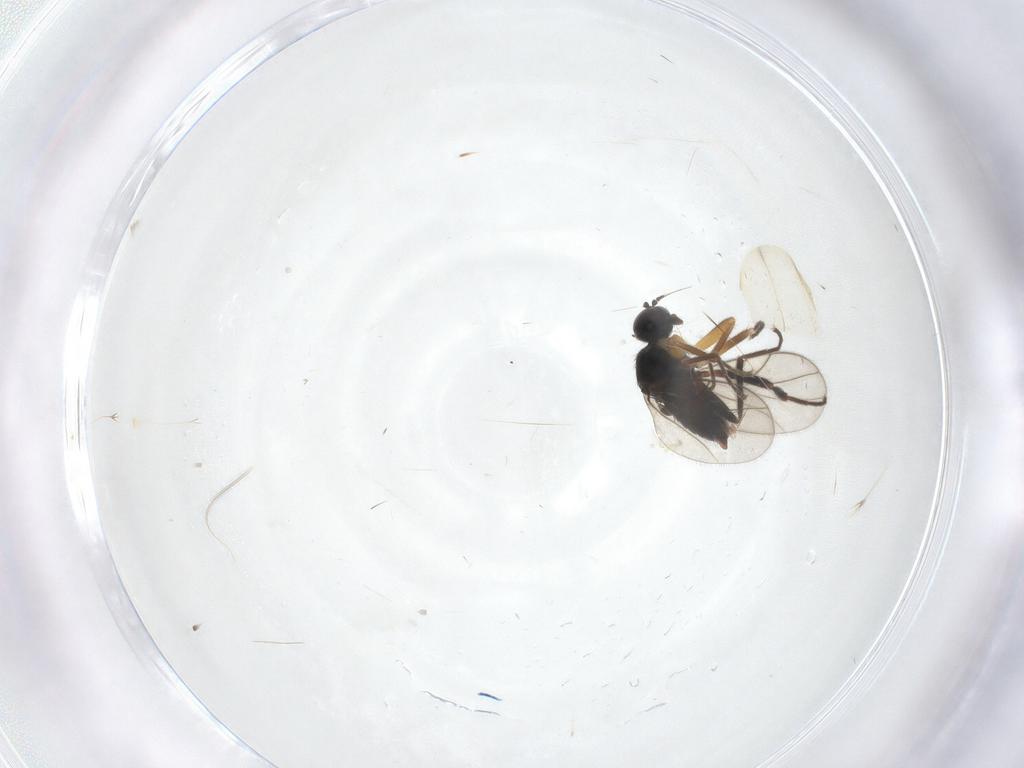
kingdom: Animalia
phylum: Arthropoda
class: Insecta
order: Diptera
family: Hybotidae
